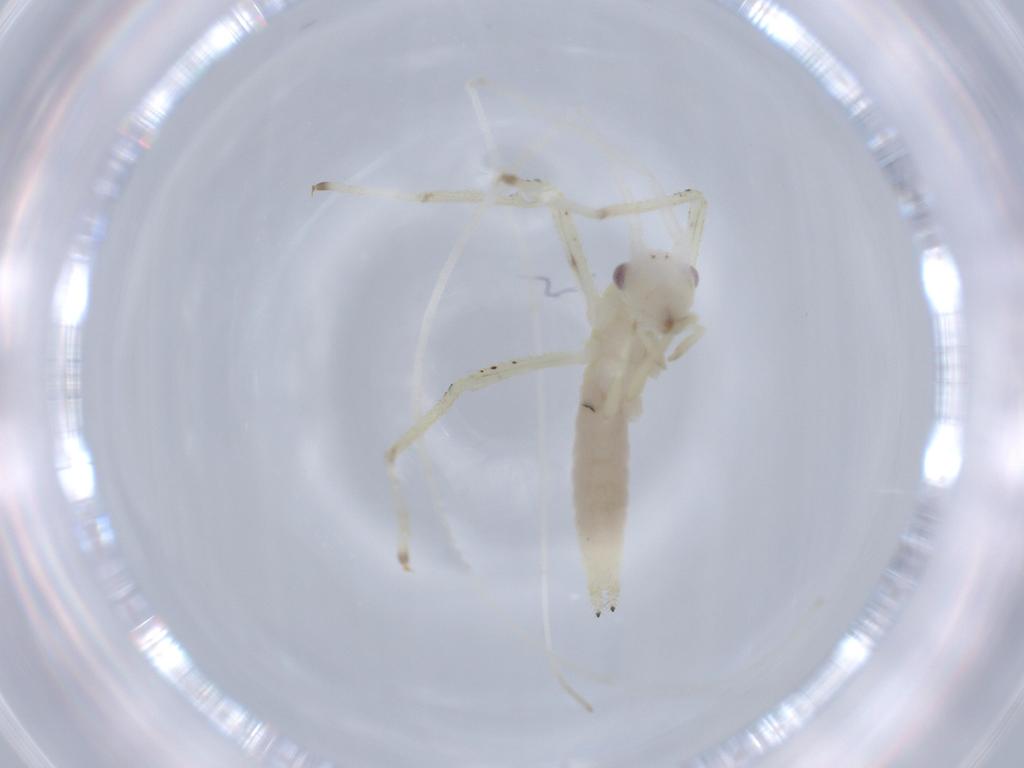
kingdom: Animalia
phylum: Arthropoda
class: Insecta
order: Orthoptera
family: Oecanthidae
